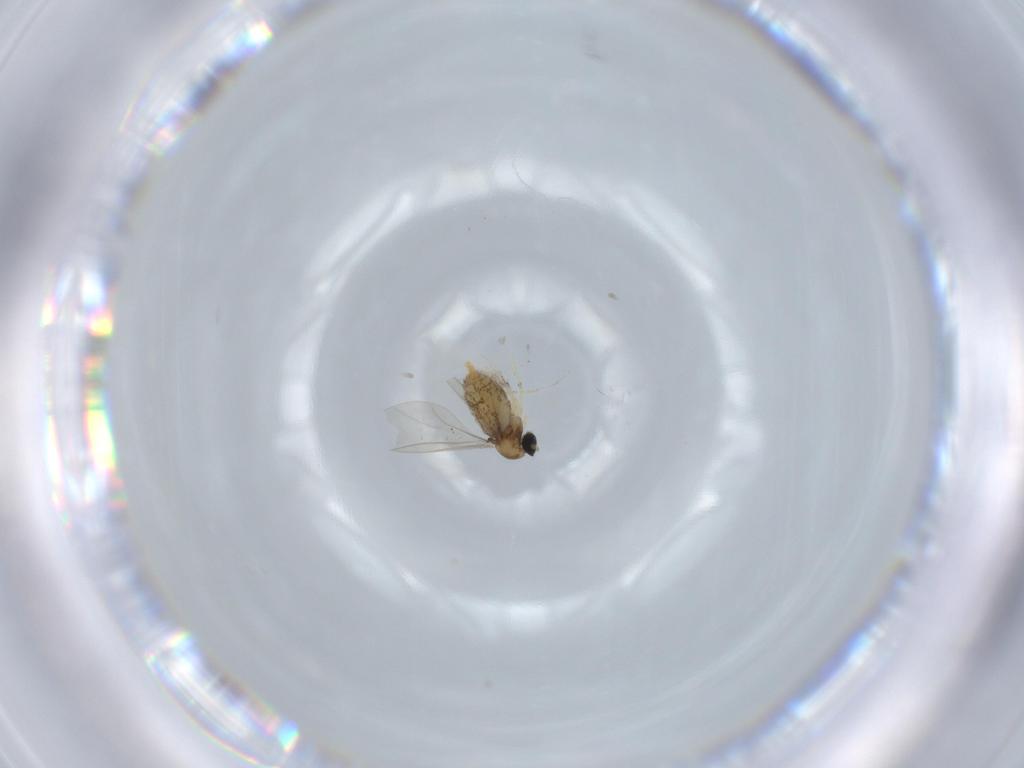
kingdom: Animalia
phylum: Arthropoda
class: Insecta
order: Diptera
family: Cecidomyiidae
